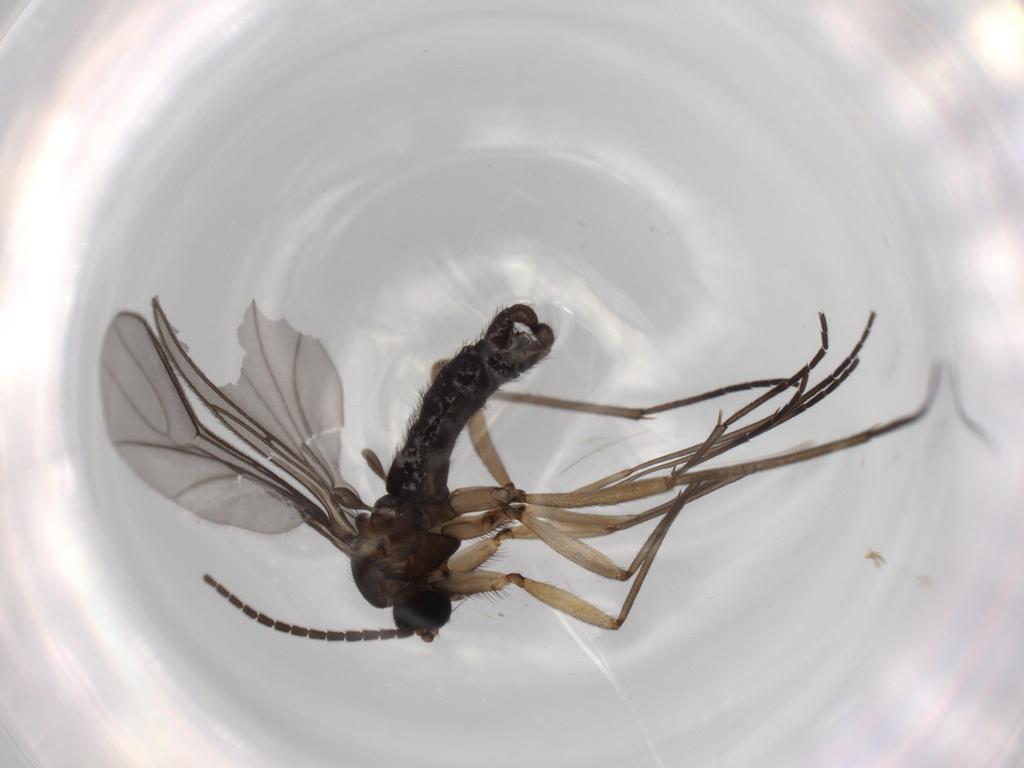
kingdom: Animalia
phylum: Arthropoda
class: Insecta
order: Diptera
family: Sciaridae
